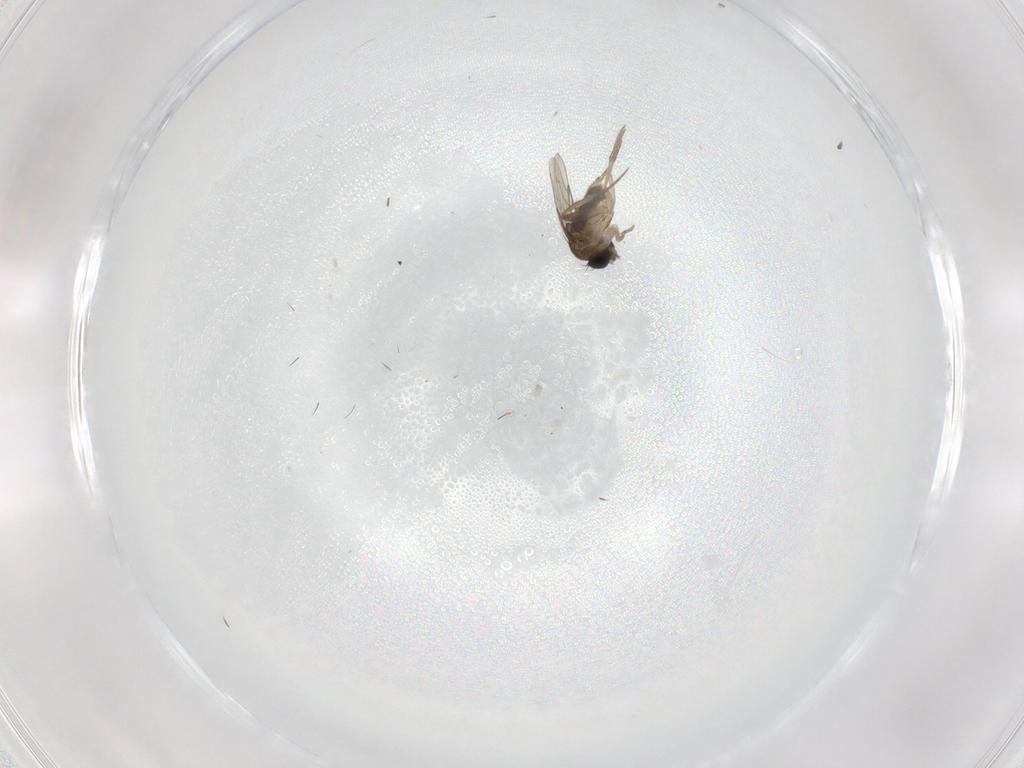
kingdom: Animalia
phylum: Arthropoda
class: Insecta
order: Diptera
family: Phoridae
